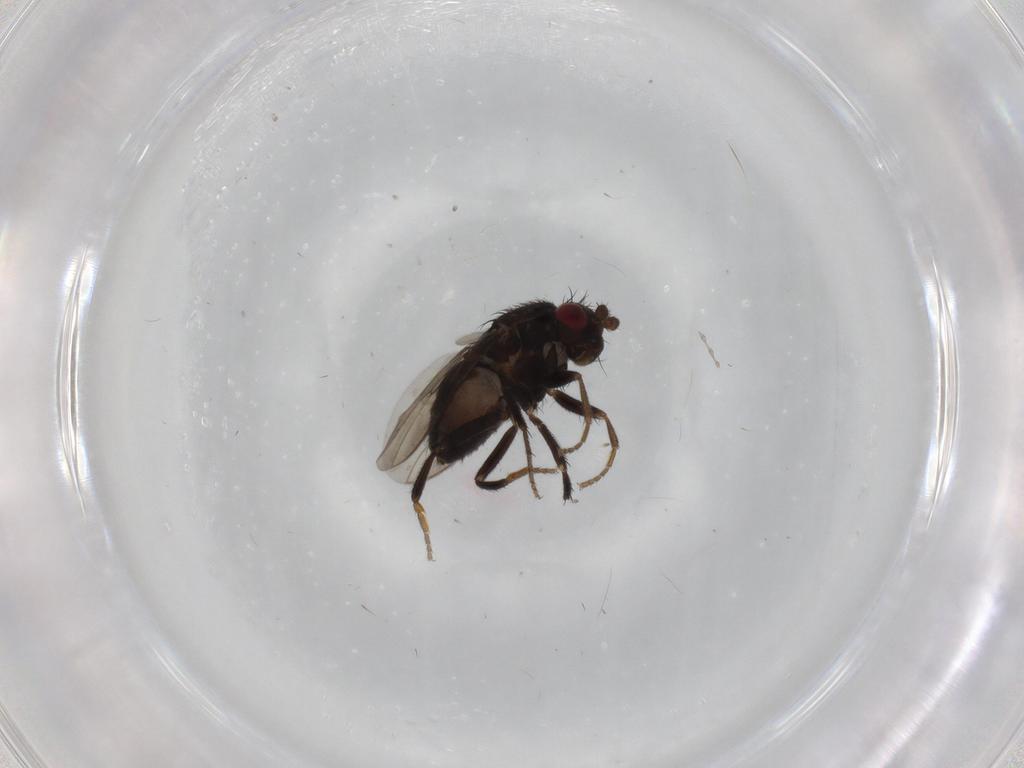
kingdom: Animalia
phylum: Arthropoda
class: Insecta
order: Diptera
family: Sphaeroceridae
